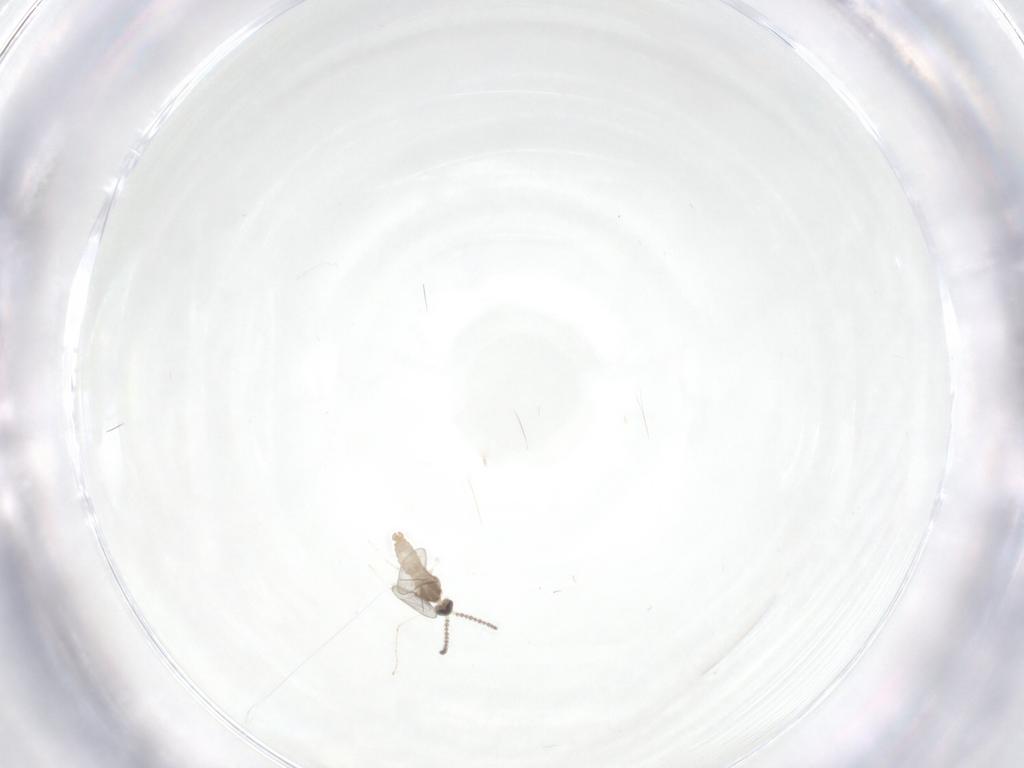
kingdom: Animalia
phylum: Arthropoda
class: Insecta
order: Diptera
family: Cecidomyiidae
